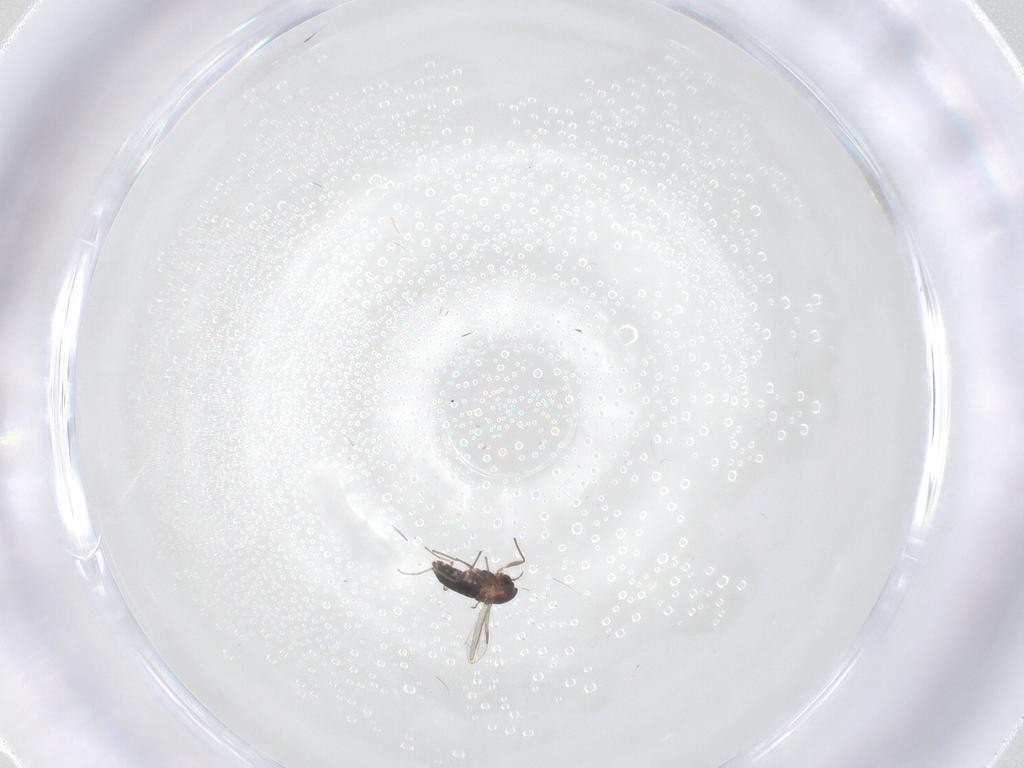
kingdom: Animalia
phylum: Arthropoda
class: Insecta
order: Diptera
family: Chironomidae
